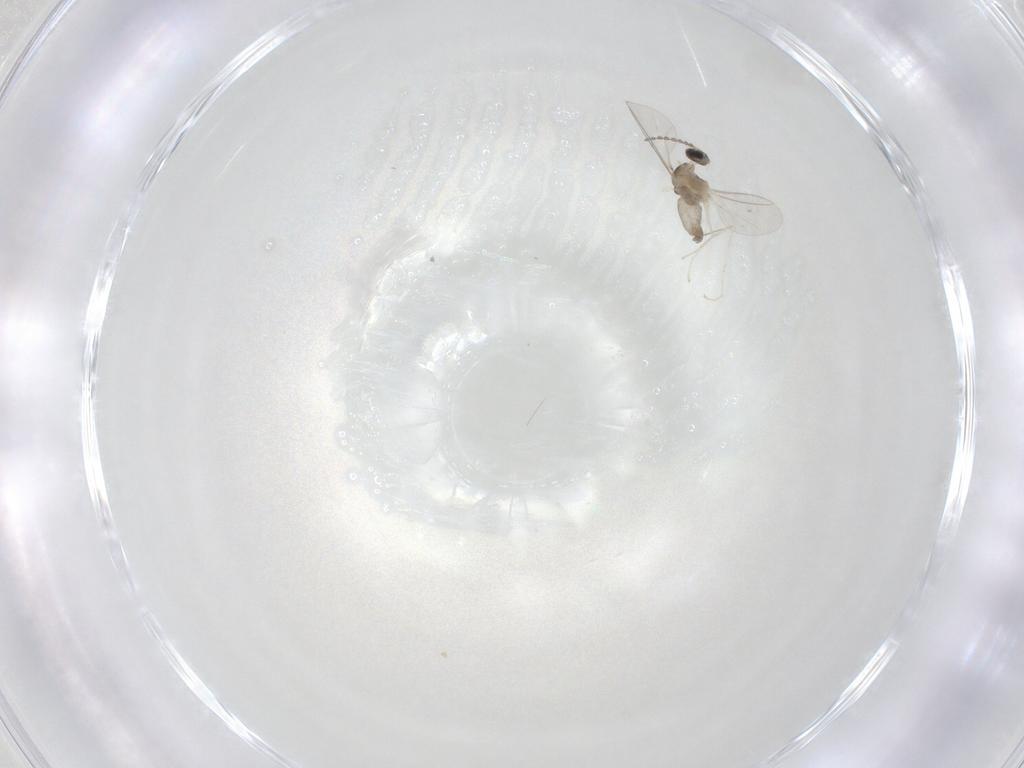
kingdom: Animalia
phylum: Arthropoda
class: Insecta
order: Diptera
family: Cecidomyiidae
